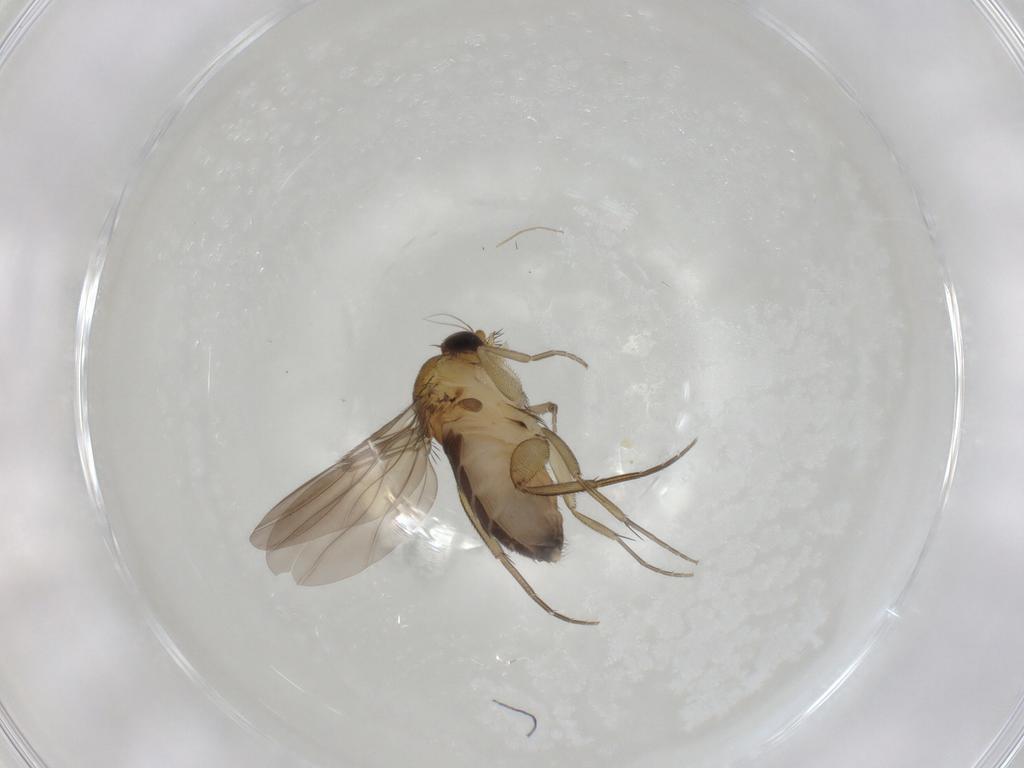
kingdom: Animalia
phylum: Arthropoda
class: Insecta
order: Diptera
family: Phoridae
